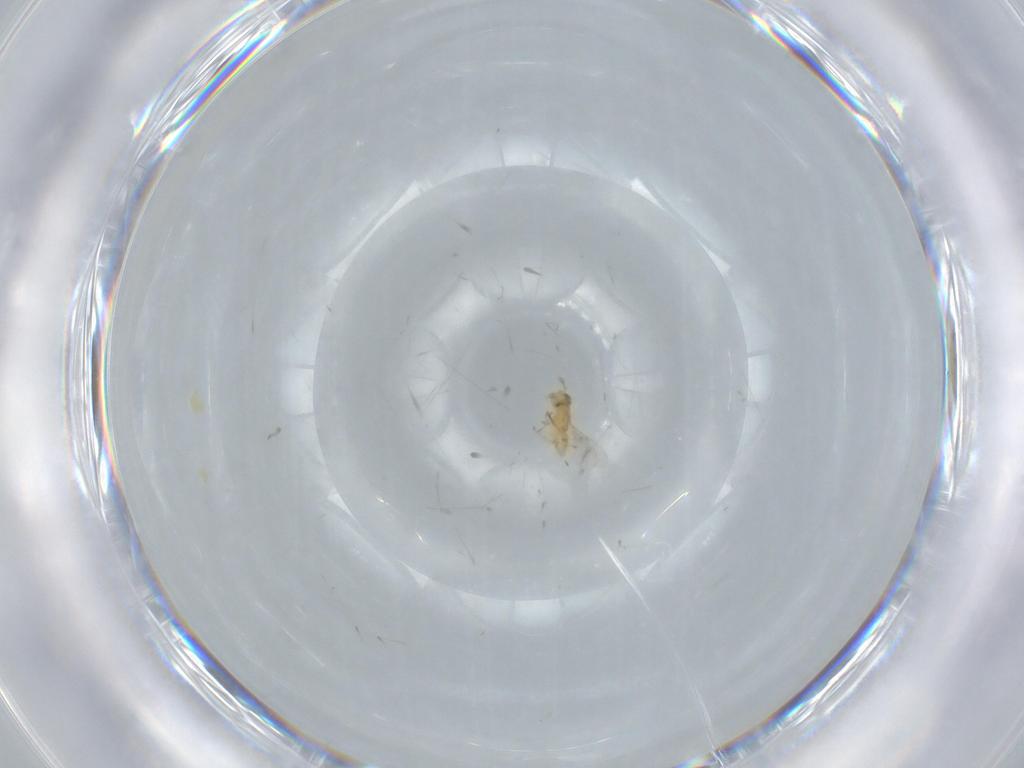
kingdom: Animalia
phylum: Arthropoda
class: Insecta
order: Hymenoptera
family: Encyrtidae
